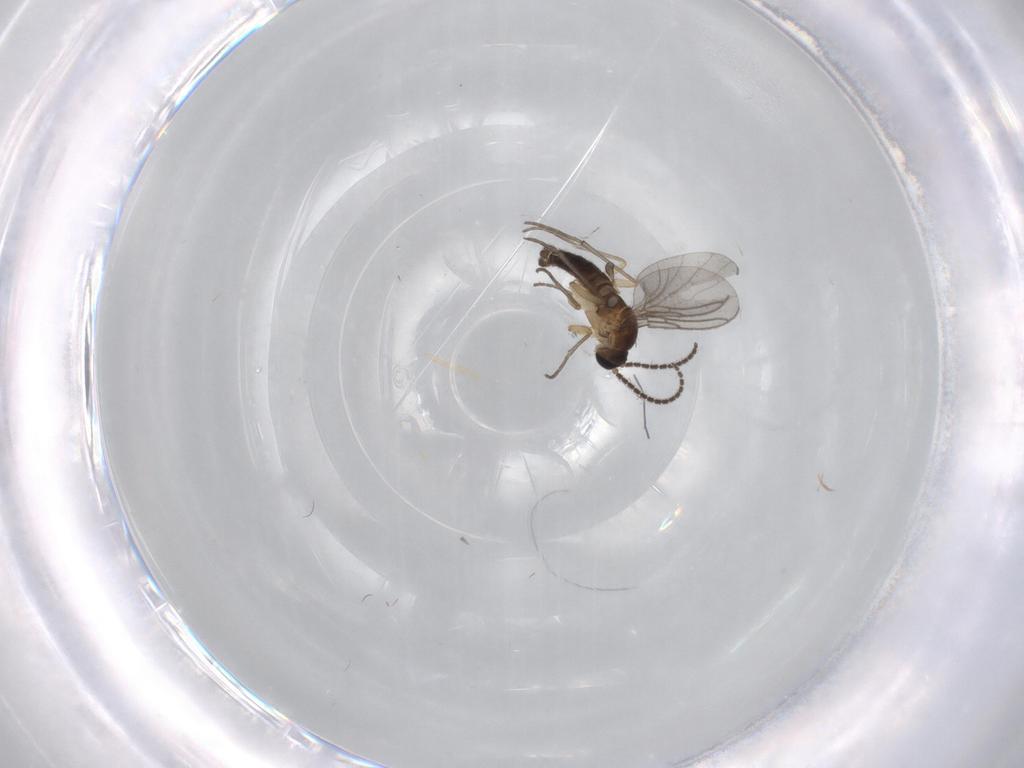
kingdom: Animalia
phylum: Arthropoda
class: Insecta
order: Diptera
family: Sciaridae
